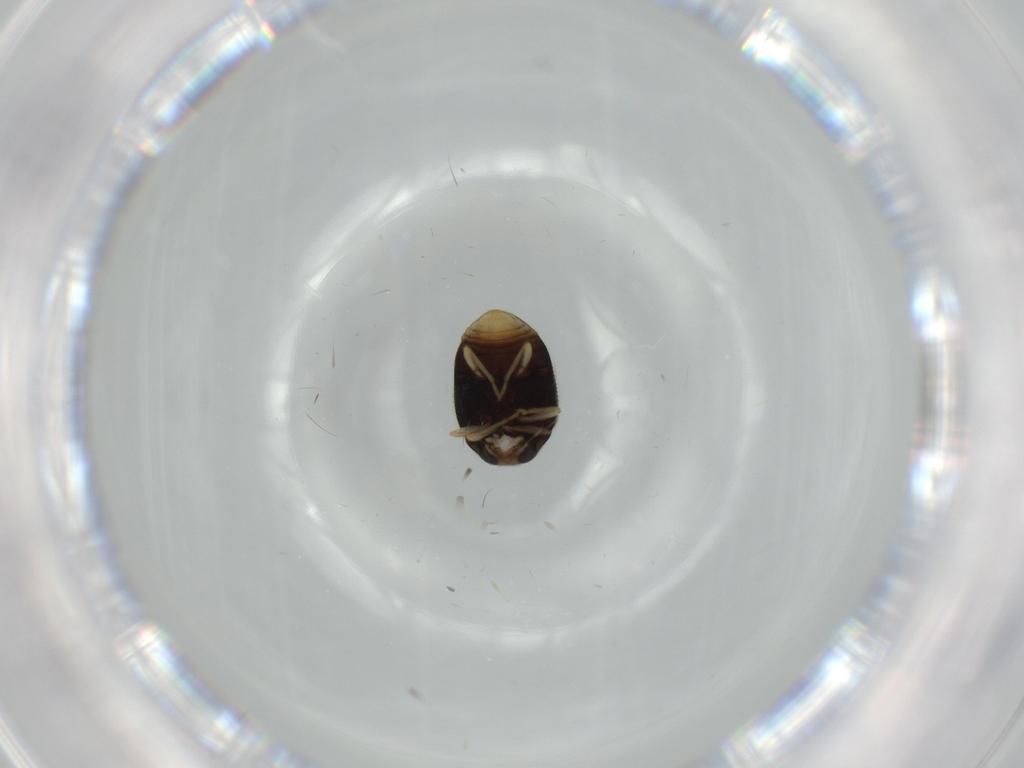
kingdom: Animalia
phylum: Arthropoda
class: Insecta
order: Coleoptera
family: Coccinellidae
